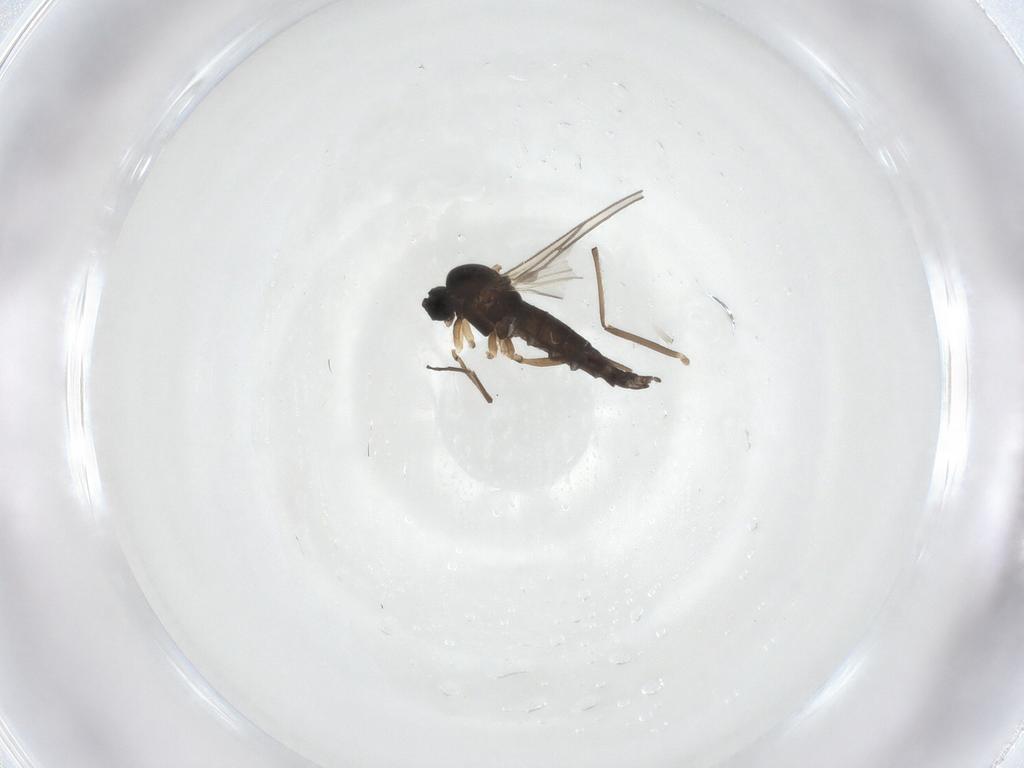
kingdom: Animalia
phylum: Arthropoda
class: Insecta
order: Diptera
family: Sciaridae
